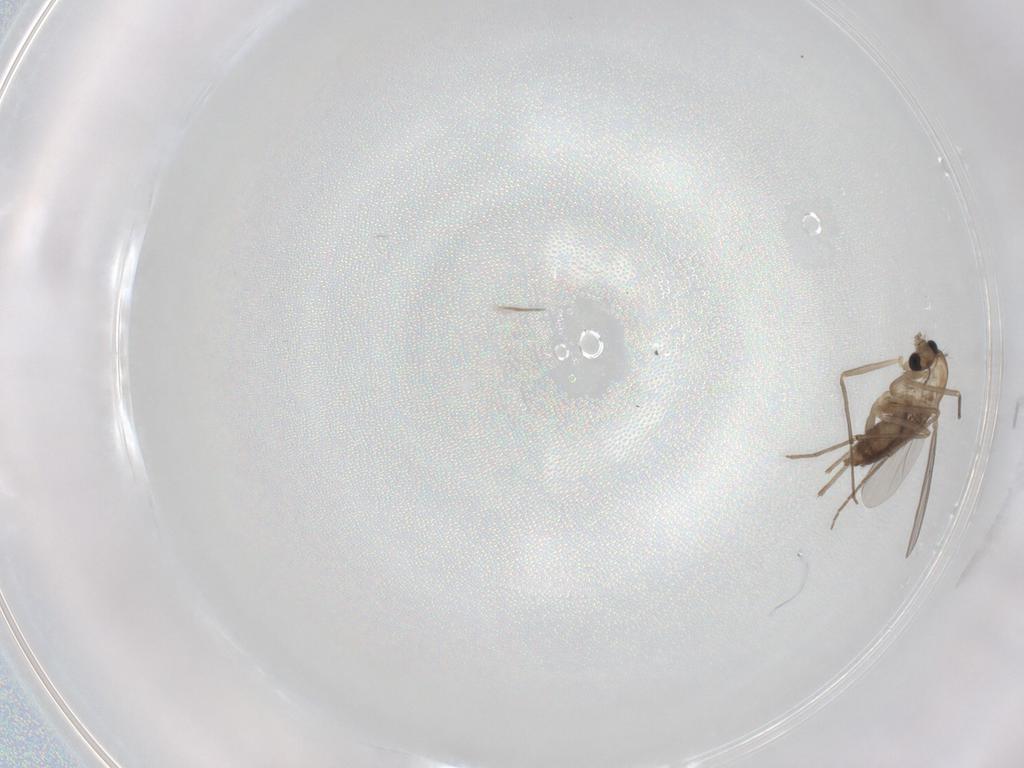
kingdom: Animalia
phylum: Arthropoda
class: Insecta
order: Diptera
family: Chironomidae
